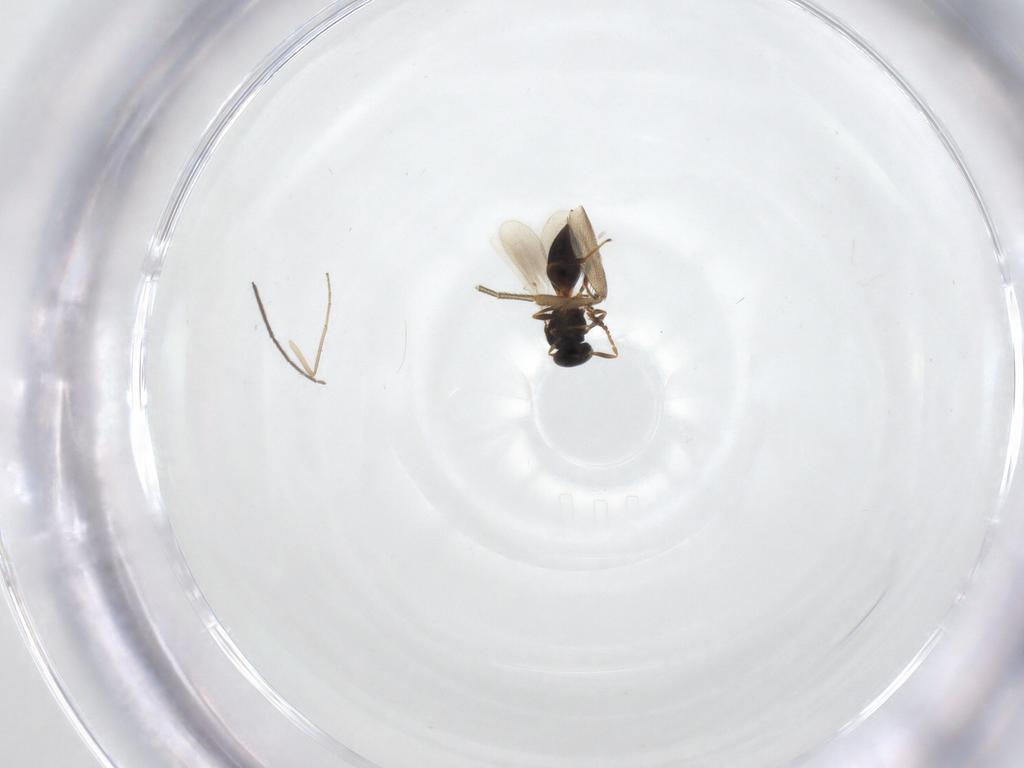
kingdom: Animalia
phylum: Arthropoda
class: Insecta
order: Hymenoptera
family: Platygastridae
